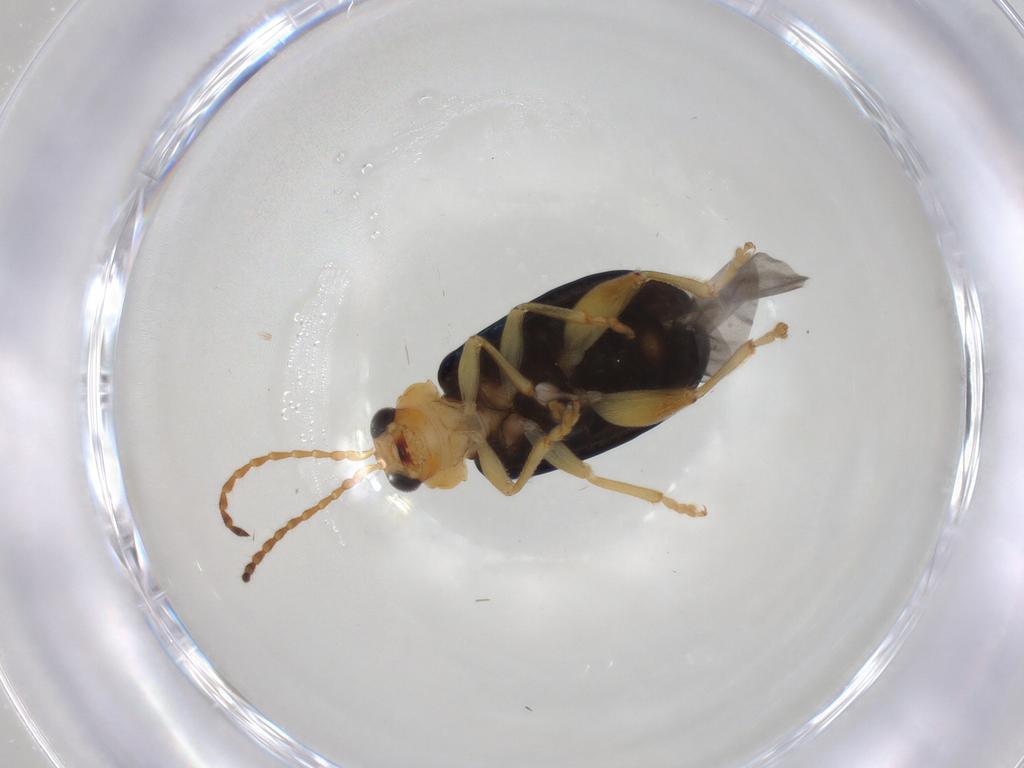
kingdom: Animalia
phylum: Arthropoda
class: Insecta
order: Coleoptera
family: Chrysomelidae
